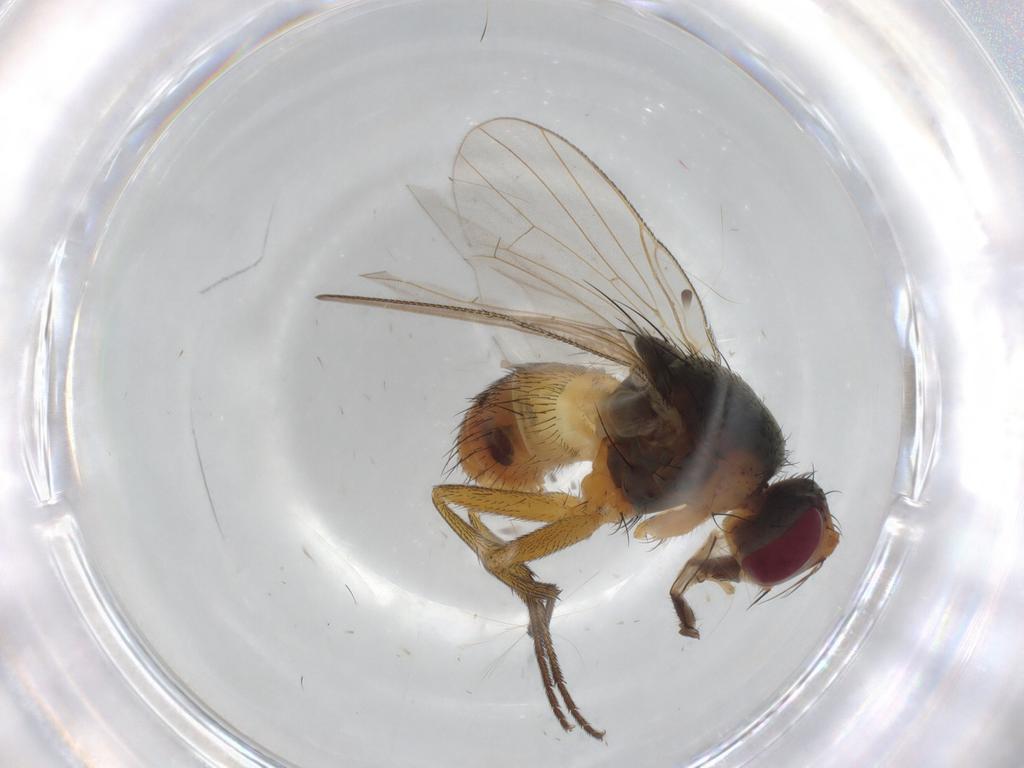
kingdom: Animalia
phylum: Arthropoda
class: Insecta
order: Diptera
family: Muscidae
